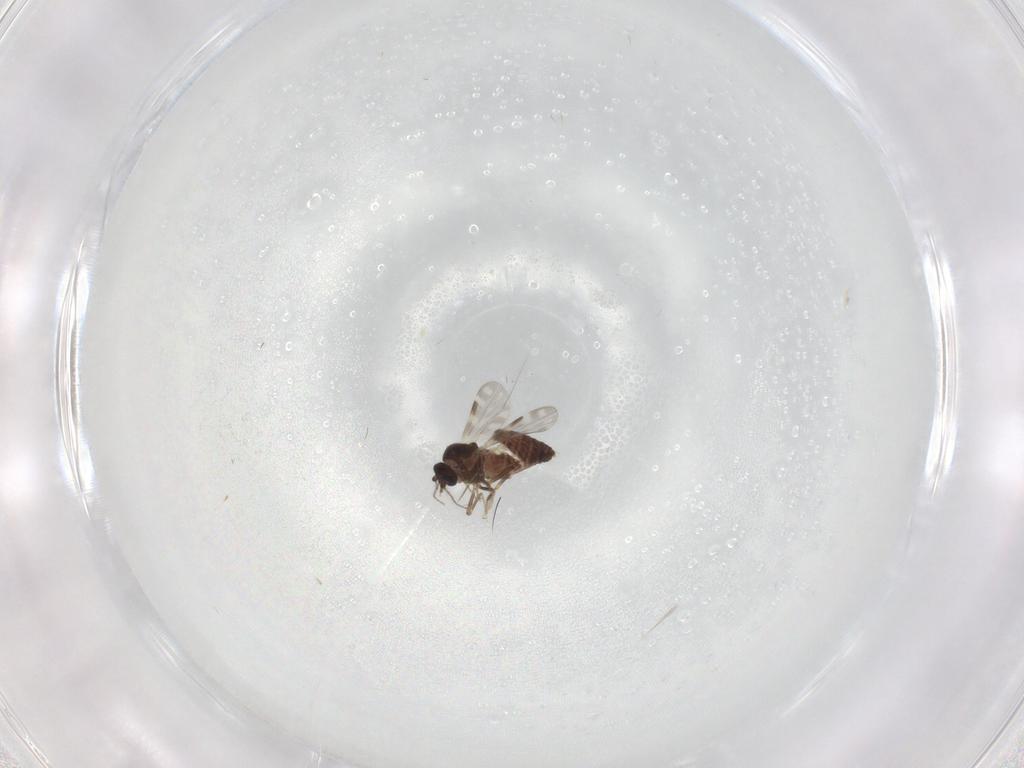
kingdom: Animalia
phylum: Arthropoda
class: Insecta
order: Diptera
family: Ceratopogonidae
